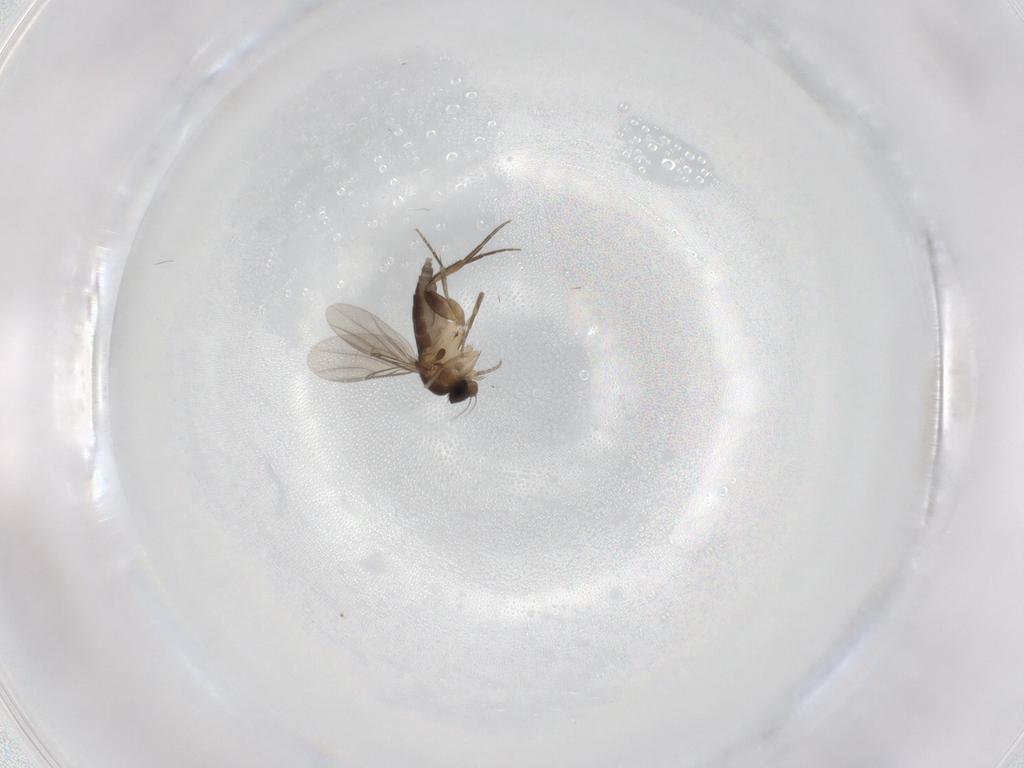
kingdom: Animalia
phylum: Arthropoda
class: Insecta
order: Diptera
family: Phoridae
